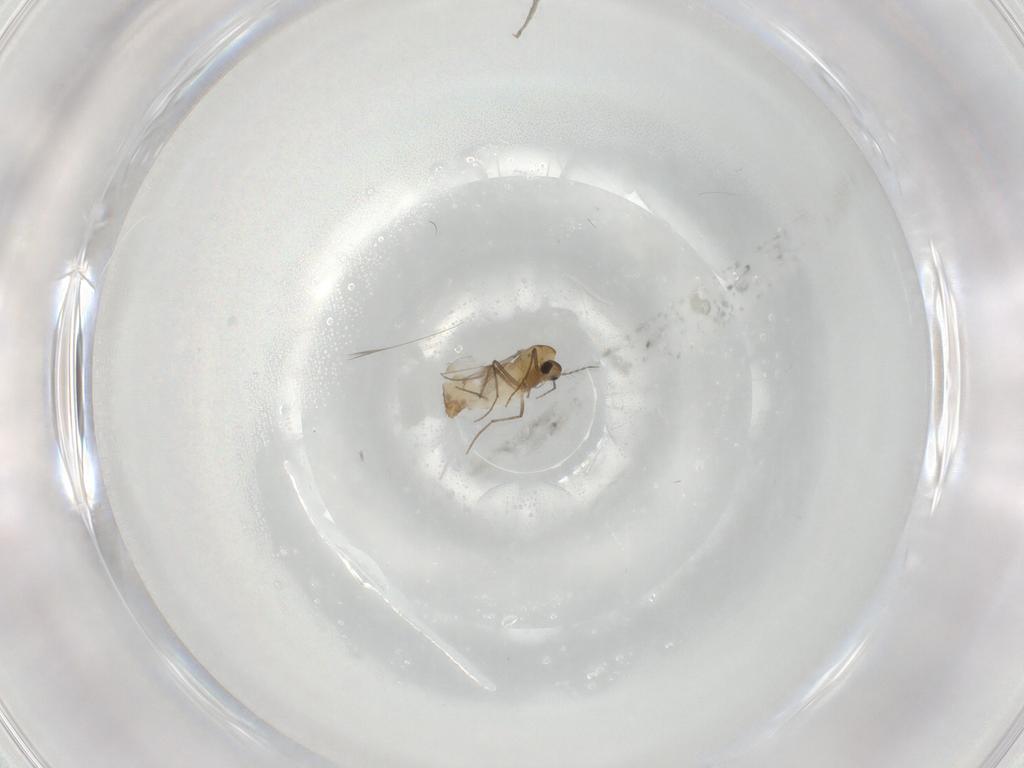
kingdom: Animalia
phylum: Arthropoda
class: Insecta
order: Diptera
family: Chironomidae
